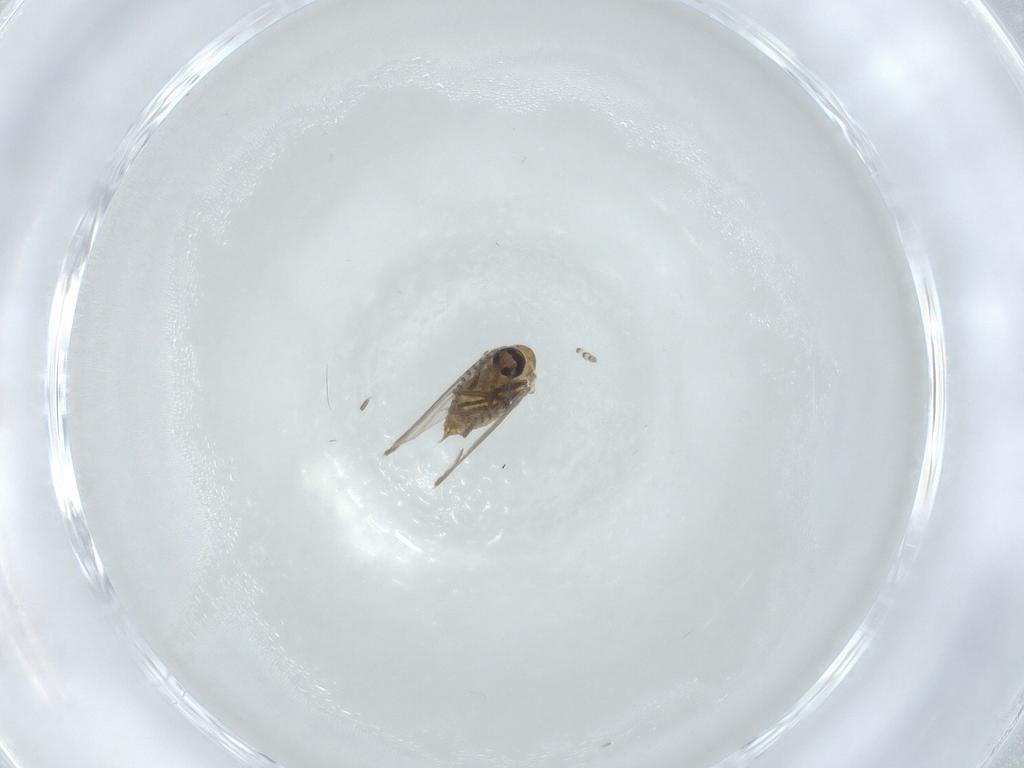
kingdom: Animalia
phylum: Arthropoda
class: Insecta
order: Diptera
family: Psychodidae
